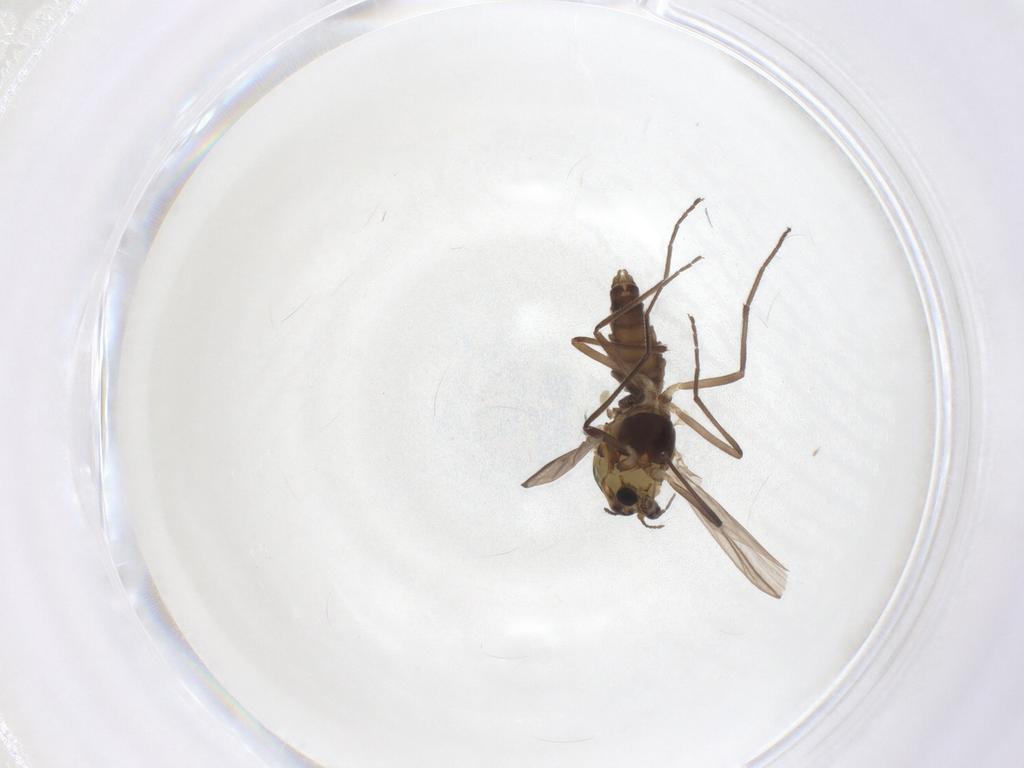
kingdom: Animalia
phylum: Arthropoda
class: Insecta
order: Diptera
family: Chironomidae
